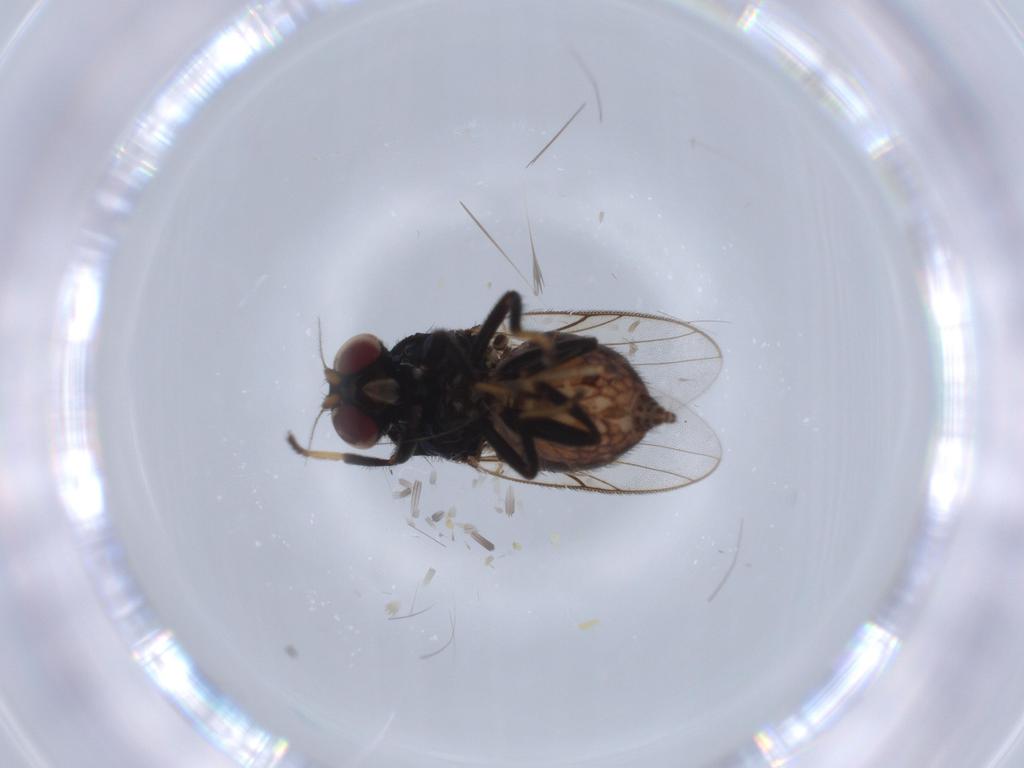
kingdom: Animalia
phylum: Arthropoda
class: Insecta
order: Diptera
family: Chloropidae
